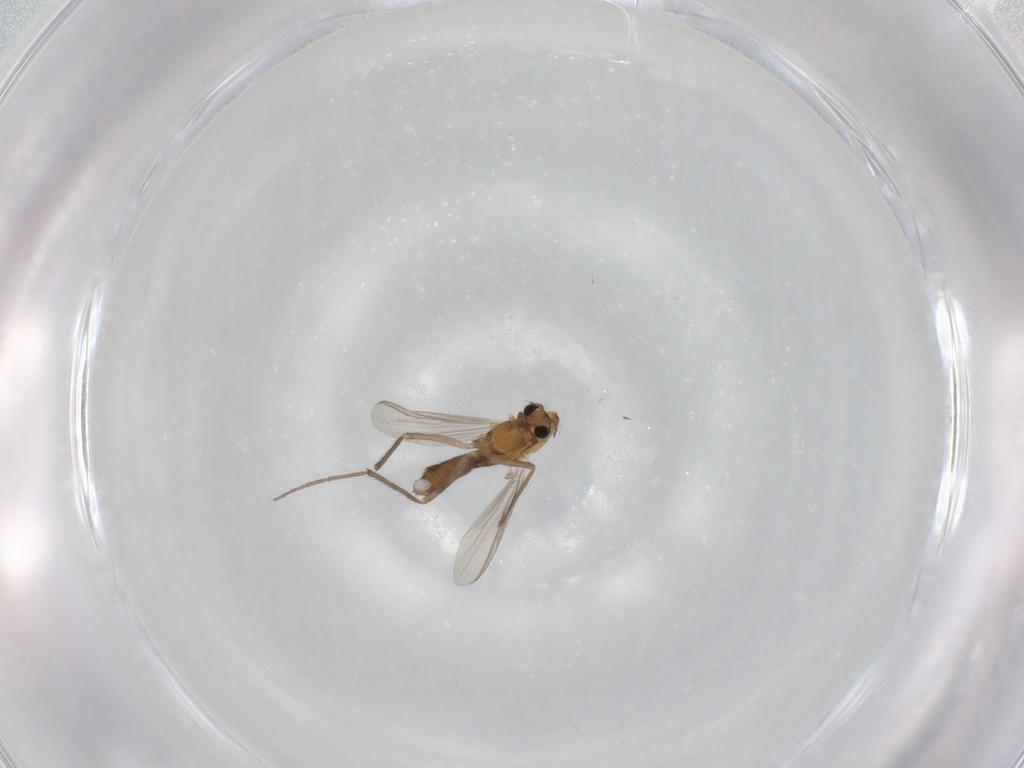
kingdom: Animalia
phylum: Arthropoda
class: Insecta
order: Diptera
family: Chironomidae
